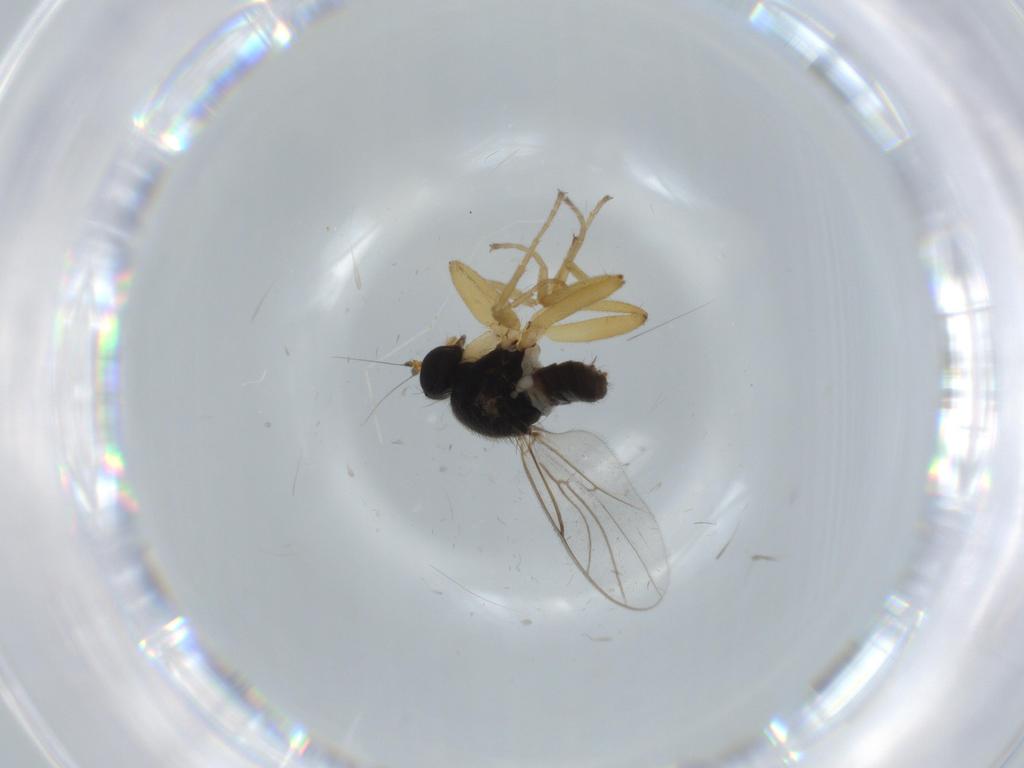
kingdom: Animalia
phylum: Arthropoda
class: Insecta
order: Diptera
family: Hybotidae
